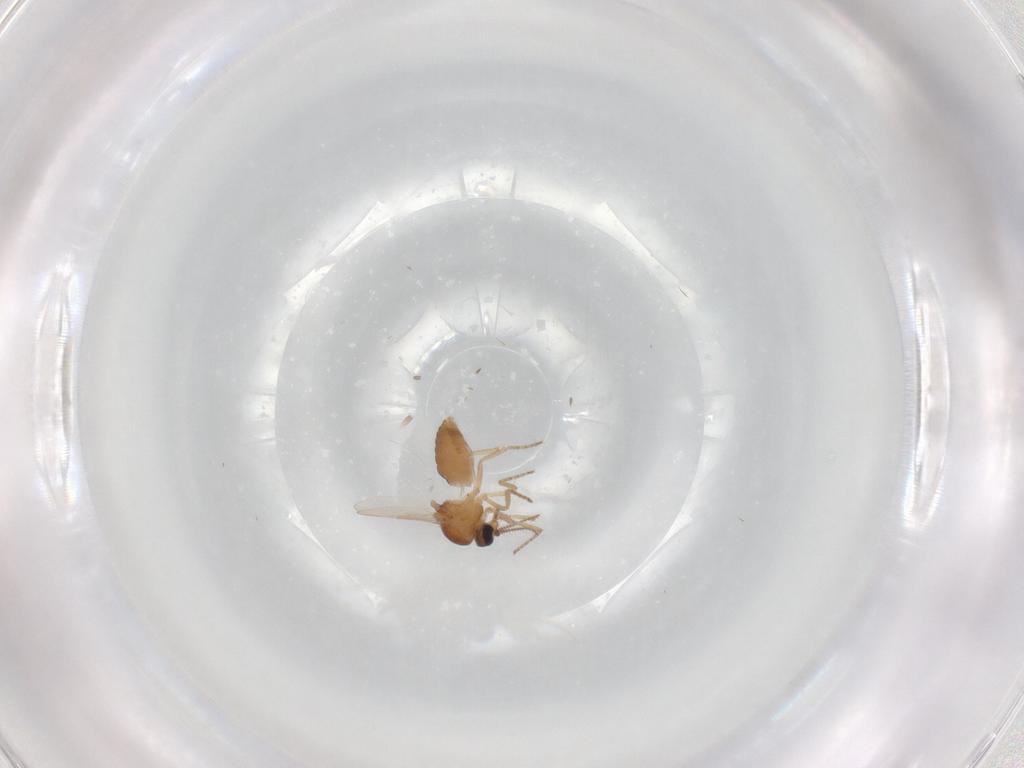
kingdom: Animalia
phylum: Arthropoda
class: Insecta
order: Diptera
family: Ceratopogonidae
